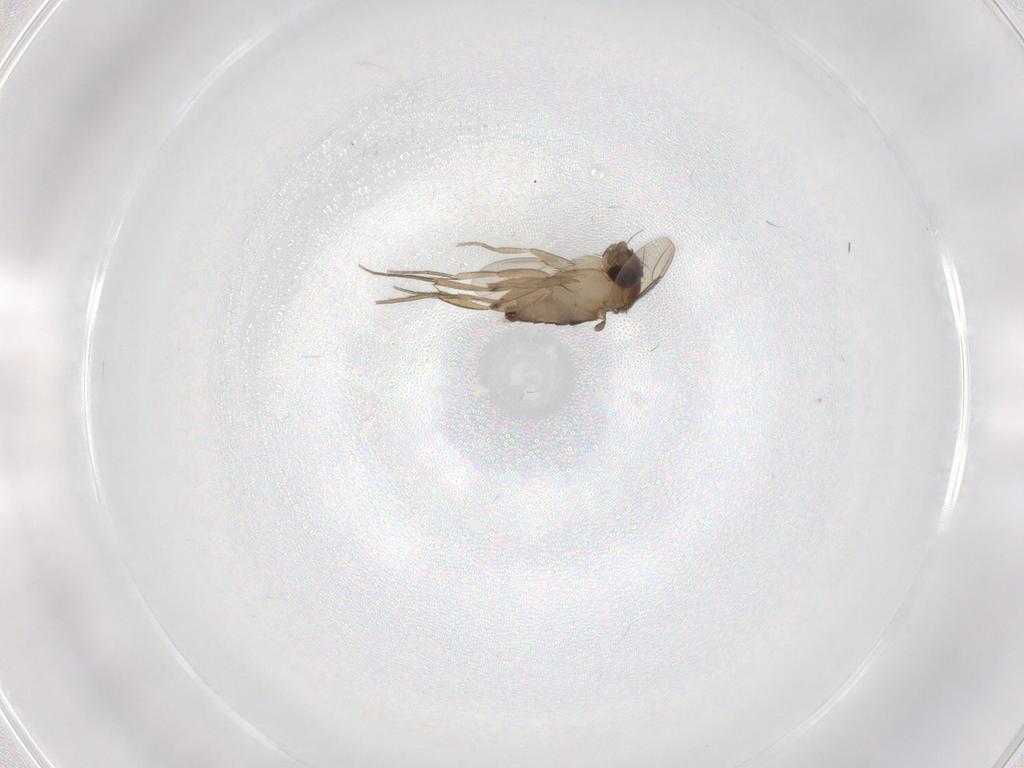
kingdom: Animalia
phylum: Arthropoda
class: Insecta
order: Diptera
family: Phoridae
